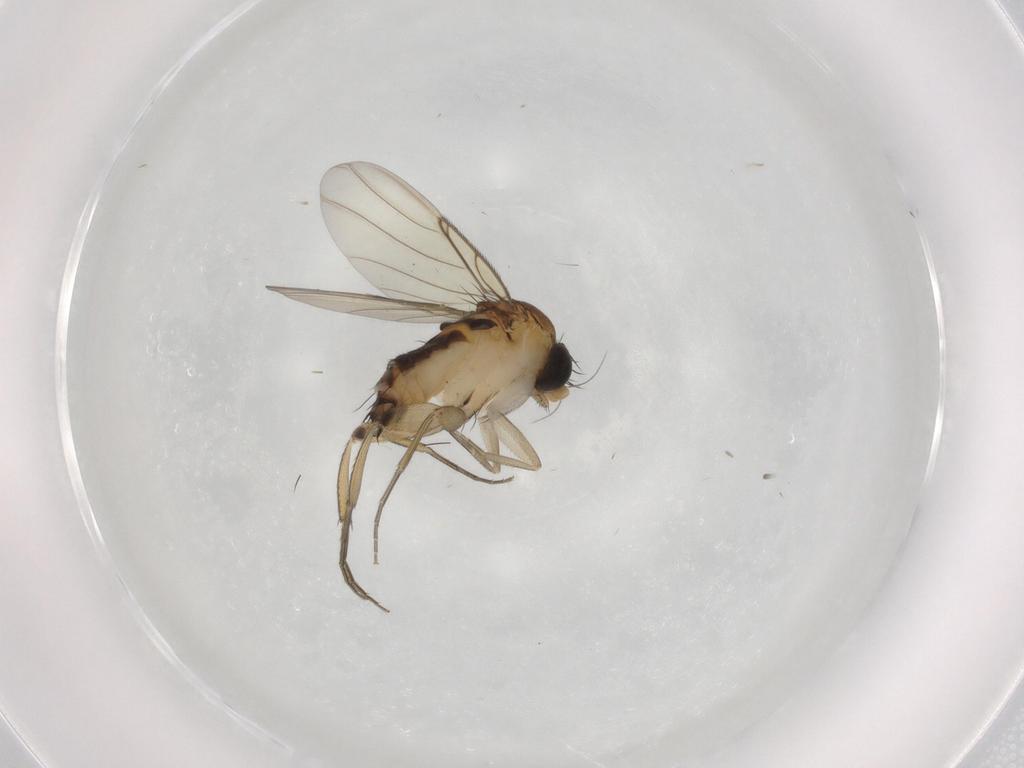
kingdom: Animalia
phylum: Arthropoda
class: Insecta
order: Diptera
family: Phoridae
